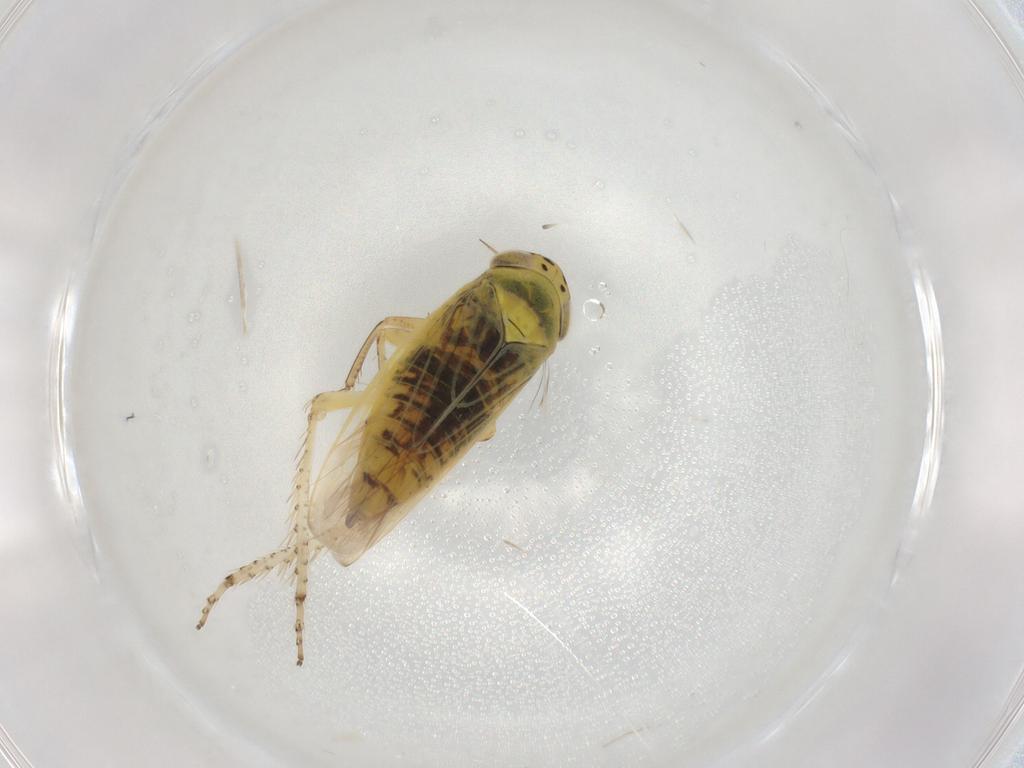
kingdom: Animalia
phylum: Arthropoda
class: Insecta
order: Hemiptera
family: Cicadellidae
